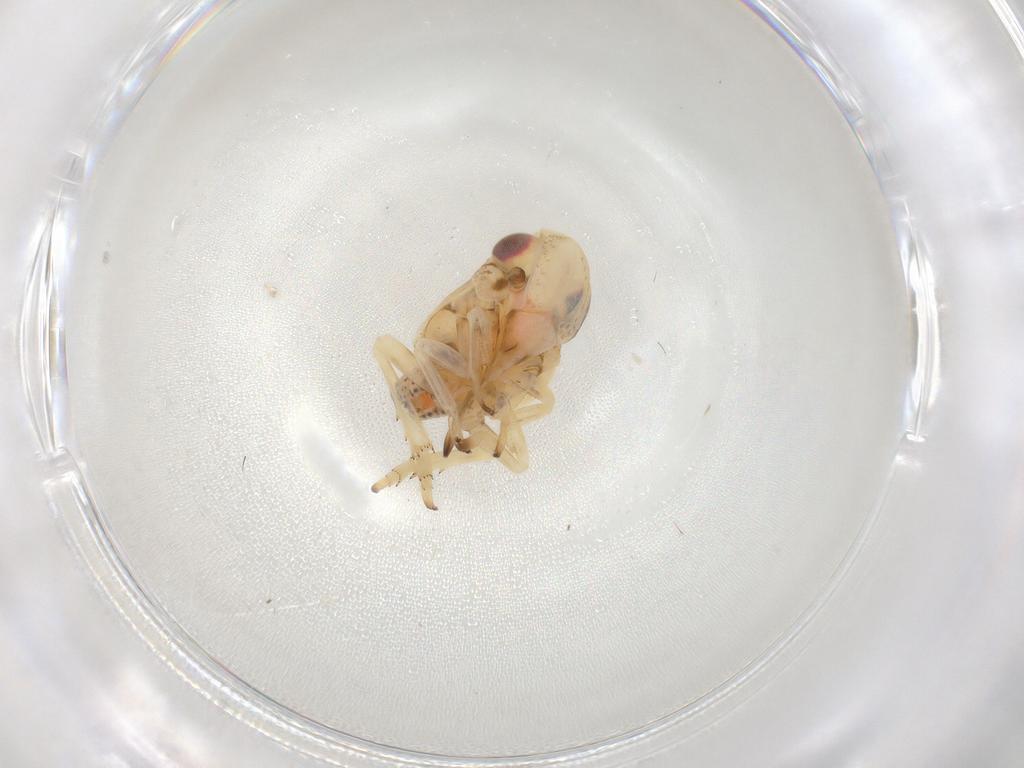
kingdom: Animalia
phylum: Arthropoda
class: Insecta
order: Hemiptera
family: Fulgoroidea_incertae_sedis
